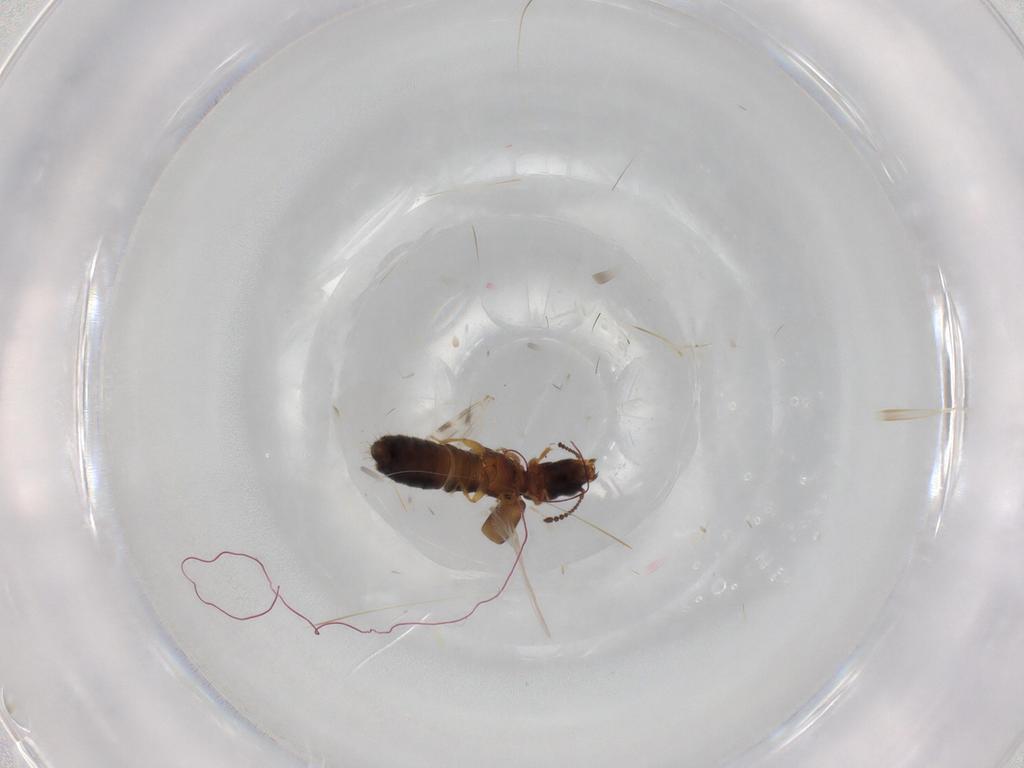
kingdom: Animalia
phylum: Arthropoda
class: Insecta
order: Coleoptera
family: Staphylinidae
